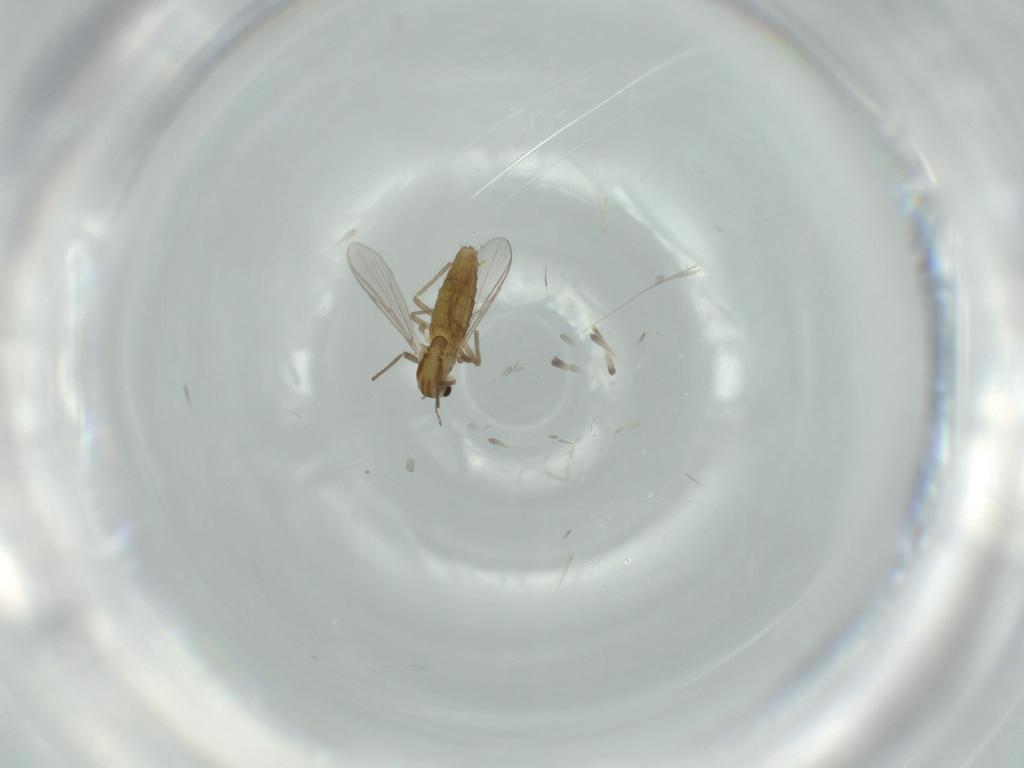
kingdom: Animalia
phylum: Arthropoda
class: Insecta
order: Diptera
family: Chironomidae
